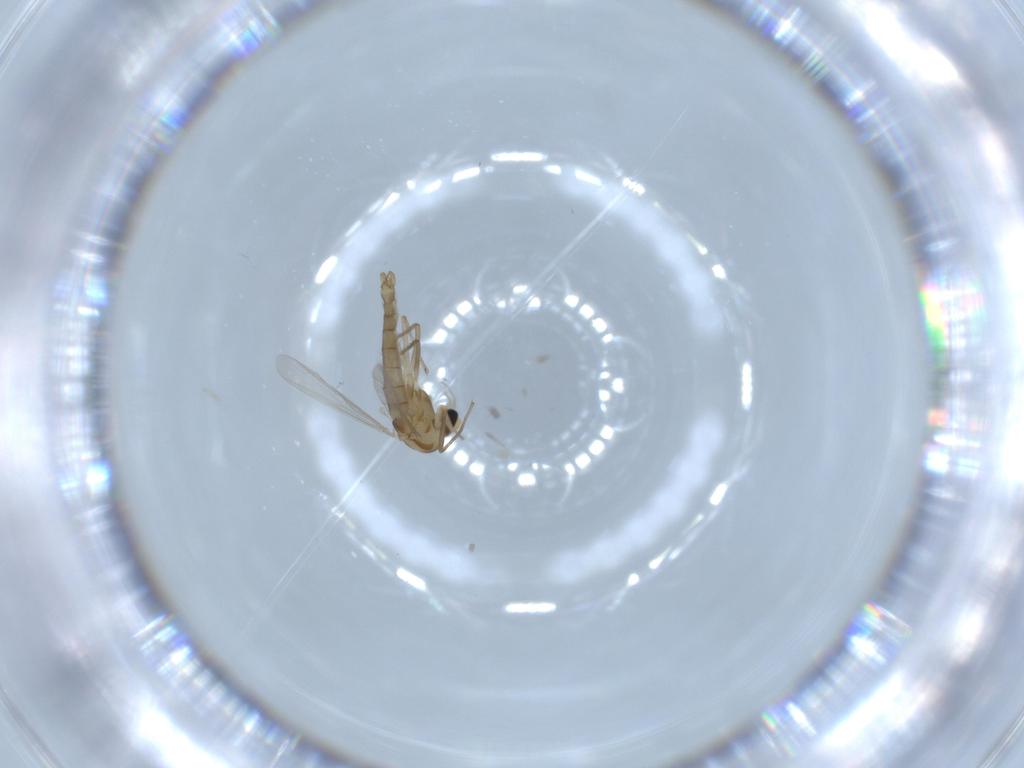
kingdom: Animalia
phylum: Arthropoda
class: Insecta
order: Diptera
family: Chironomidae
